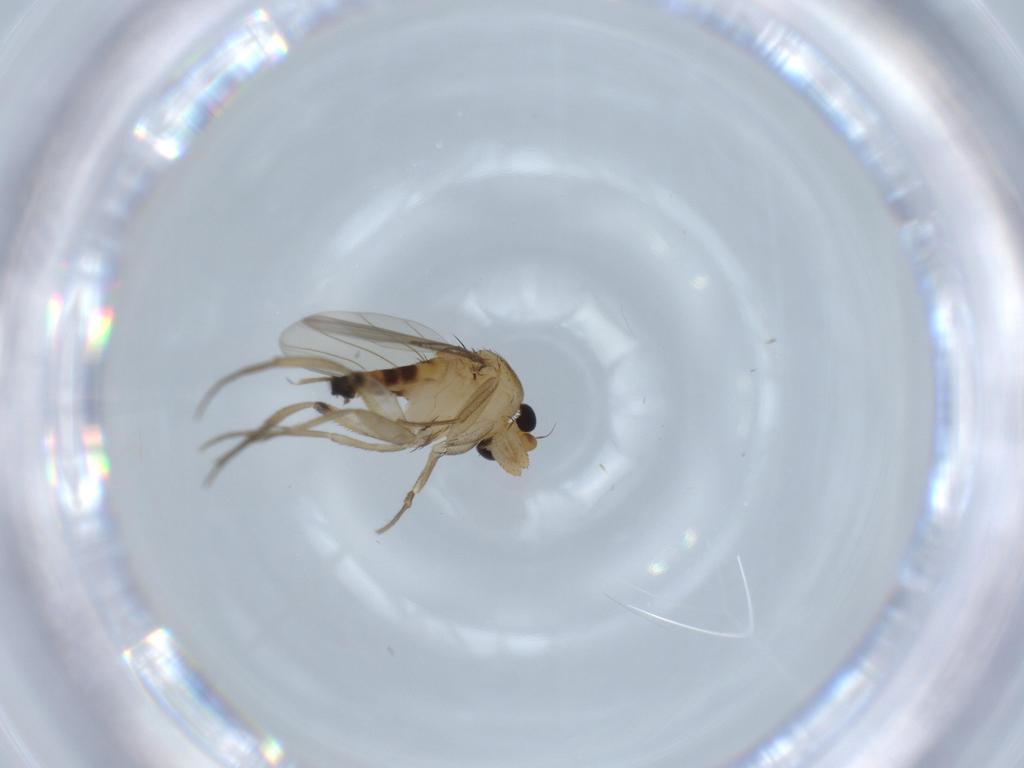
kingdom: Animalia
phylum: Arthropoda
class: Insecta
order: Diptera
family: Phoridae
